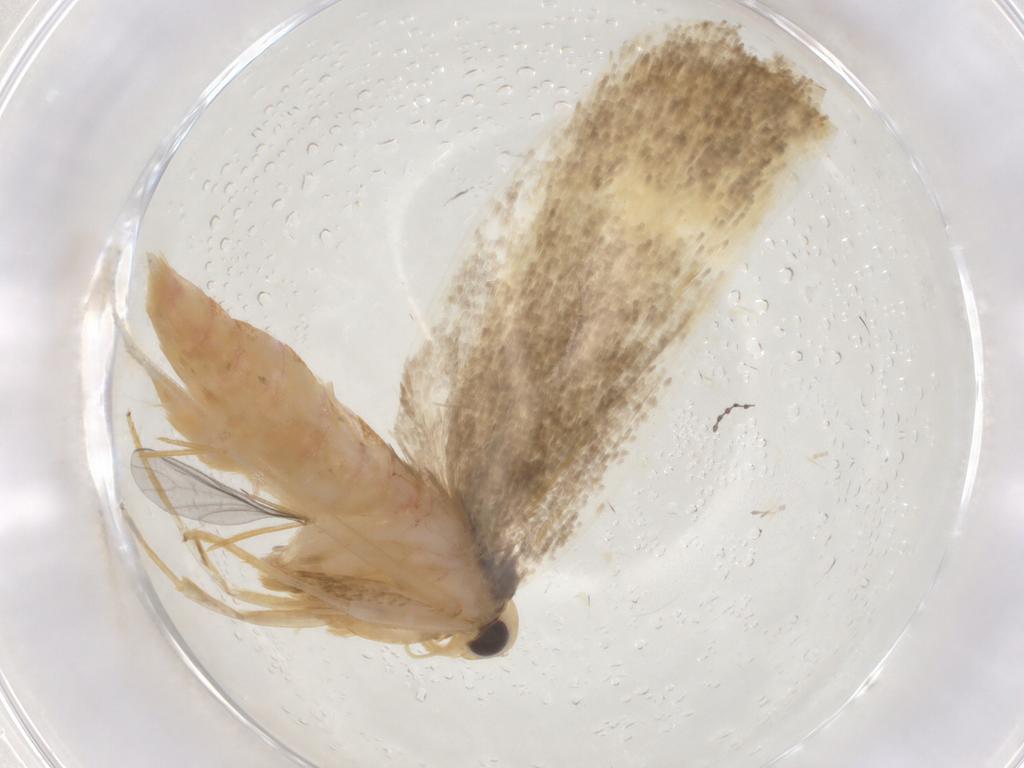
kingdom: Animalia
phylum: Arthropoda
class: Insecta
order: Lepidoptera
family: Lecithoceridae
